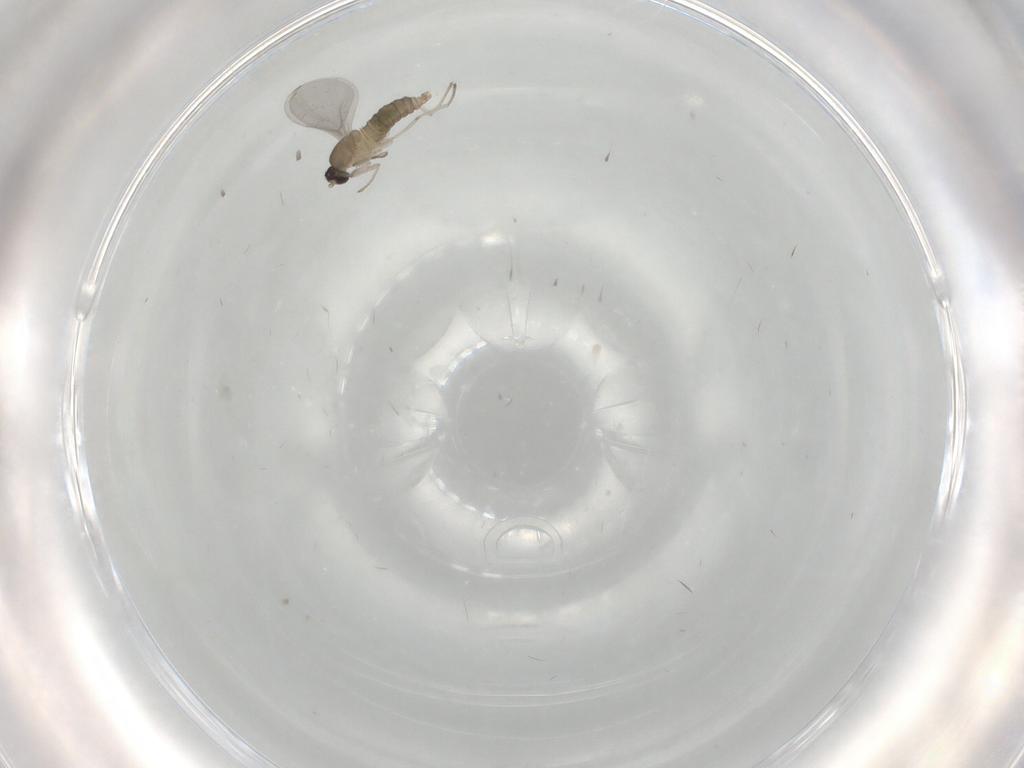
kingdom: Animalia
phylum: Arthropoda
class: Insecta
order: Diptera
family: Cecidomyiidae
